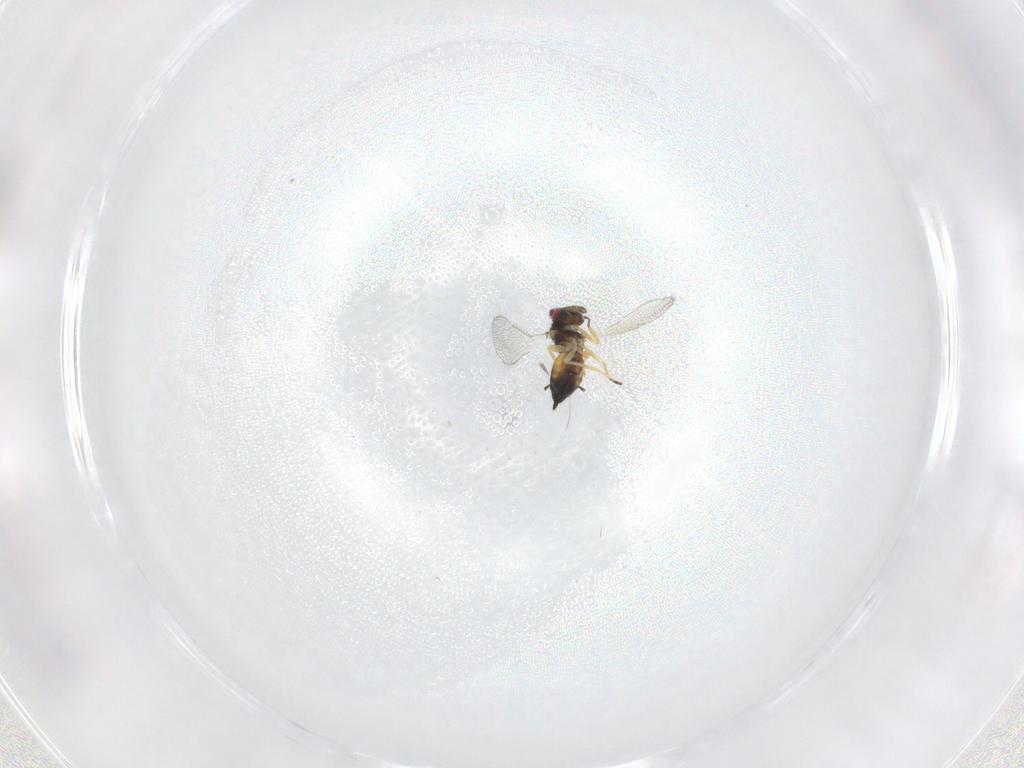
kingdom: Animalia
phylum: Arthropoda
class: Insecta
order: Hymenoptera
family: Eulophidae
